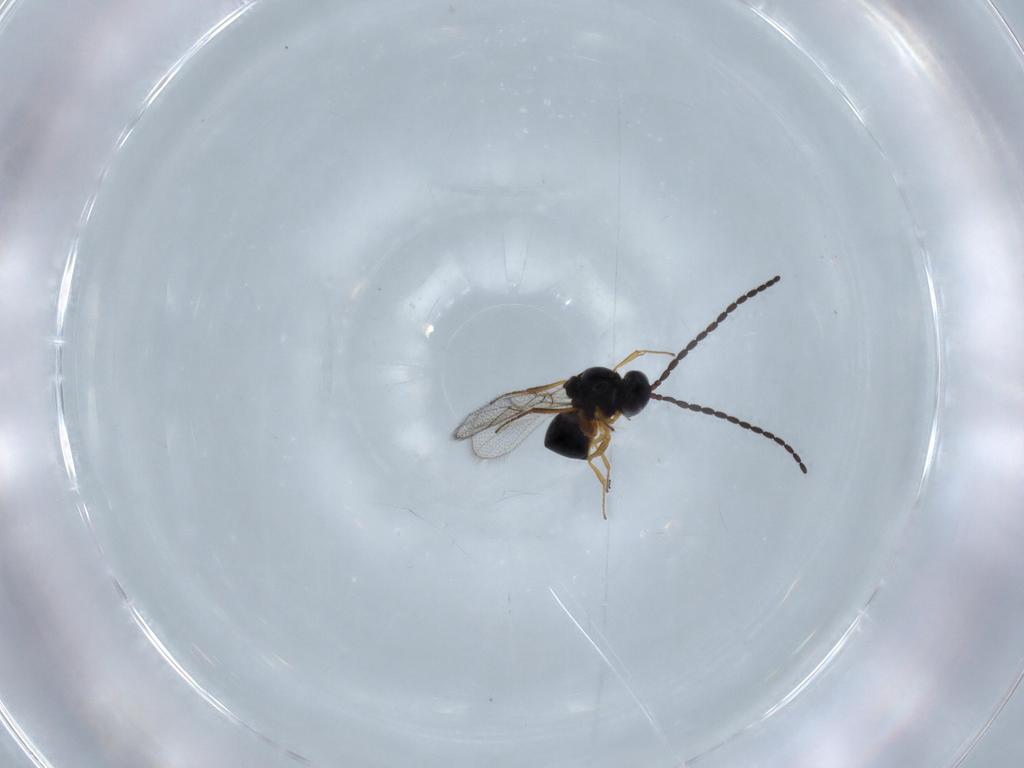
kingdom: Animalia
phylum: Arthropoda
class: Insecta
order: Hymenoptera
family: Figitidae
